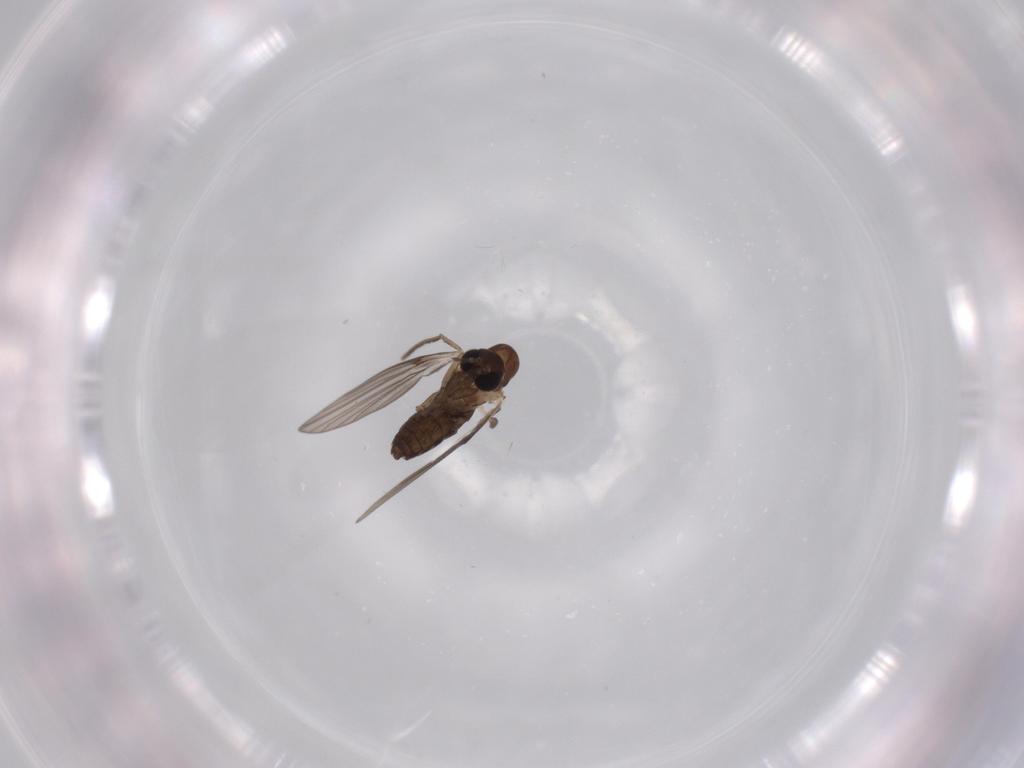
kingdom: Animalia
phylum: Arthropoda
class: Insecta
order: Diptera
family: Psychodidae
